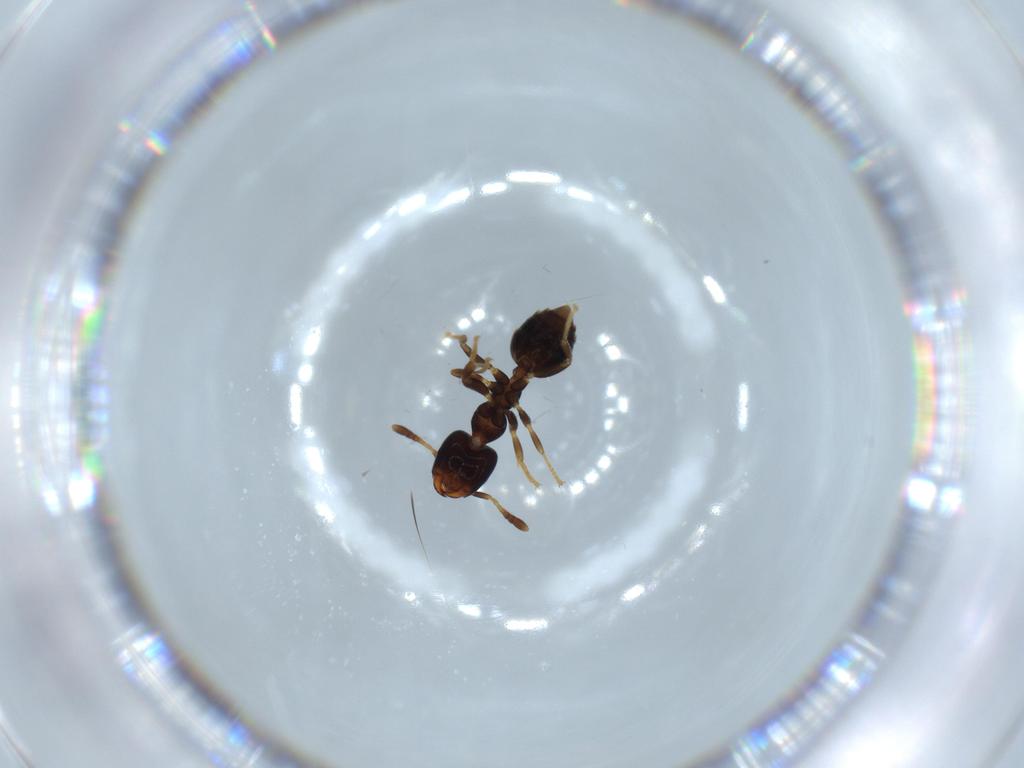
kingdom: Animalia
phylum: Arthropoda
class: Insecta
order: Hymenoptera
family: Formicidae
